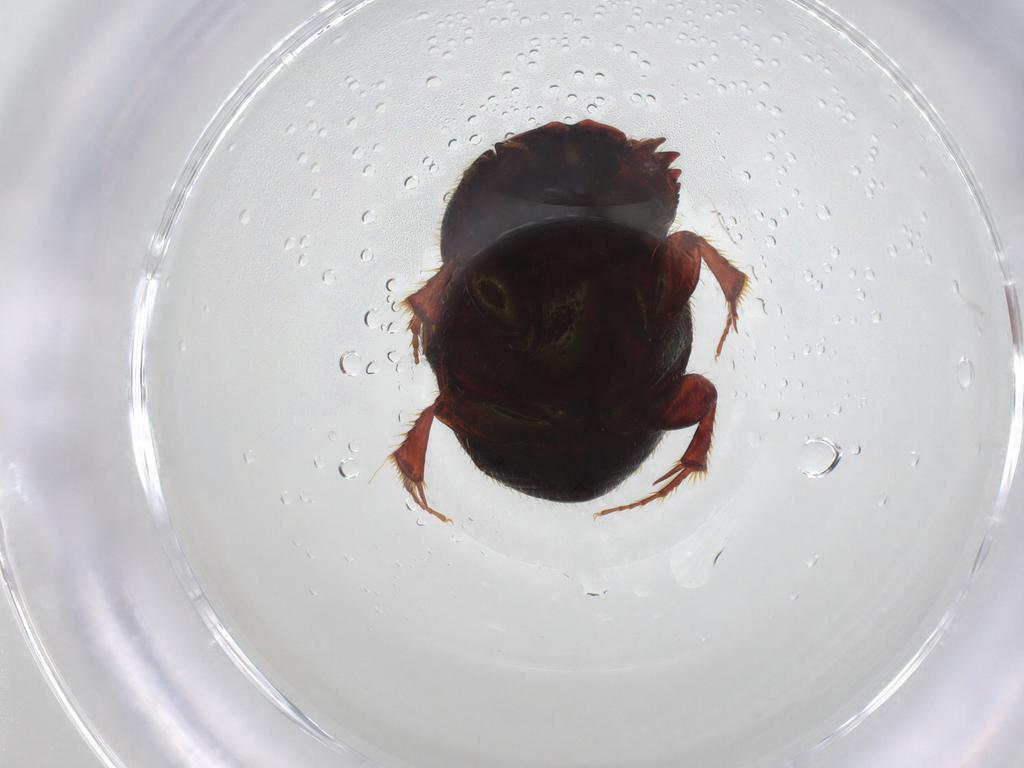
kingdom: Animalia
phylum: Arthropoda
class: Insecta
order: Coleoptera
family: Scarabaeidae
